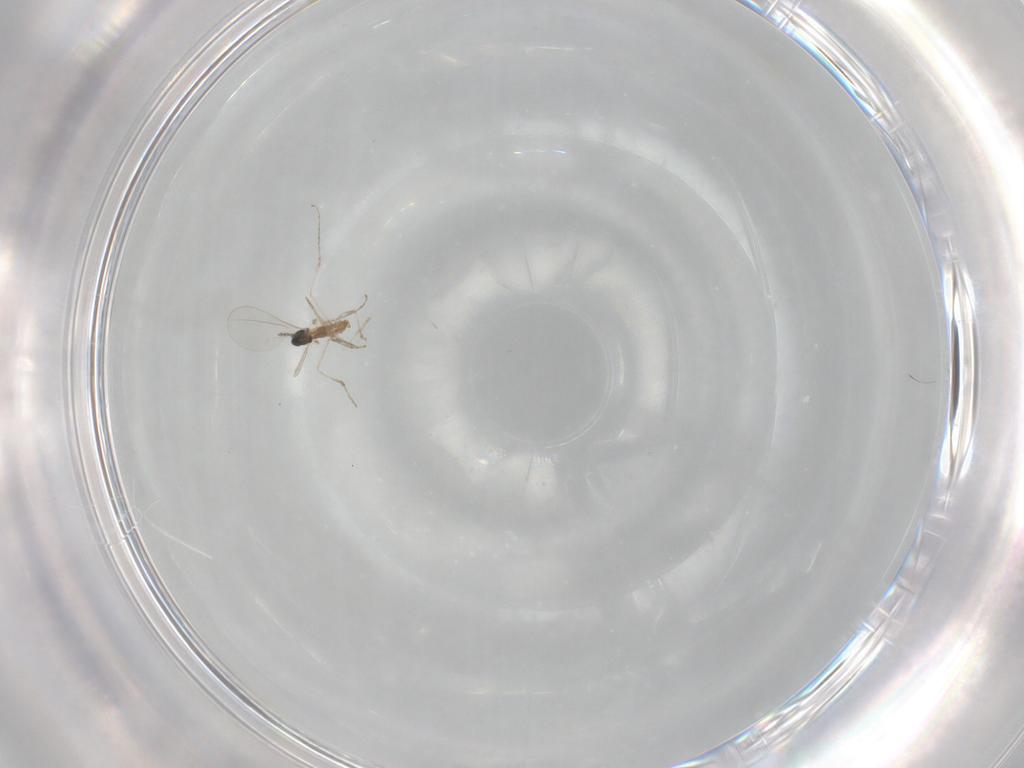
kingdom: Animalia
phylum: Arthropoda
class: Insecta
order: Diptera
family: Cecidomyiidae
